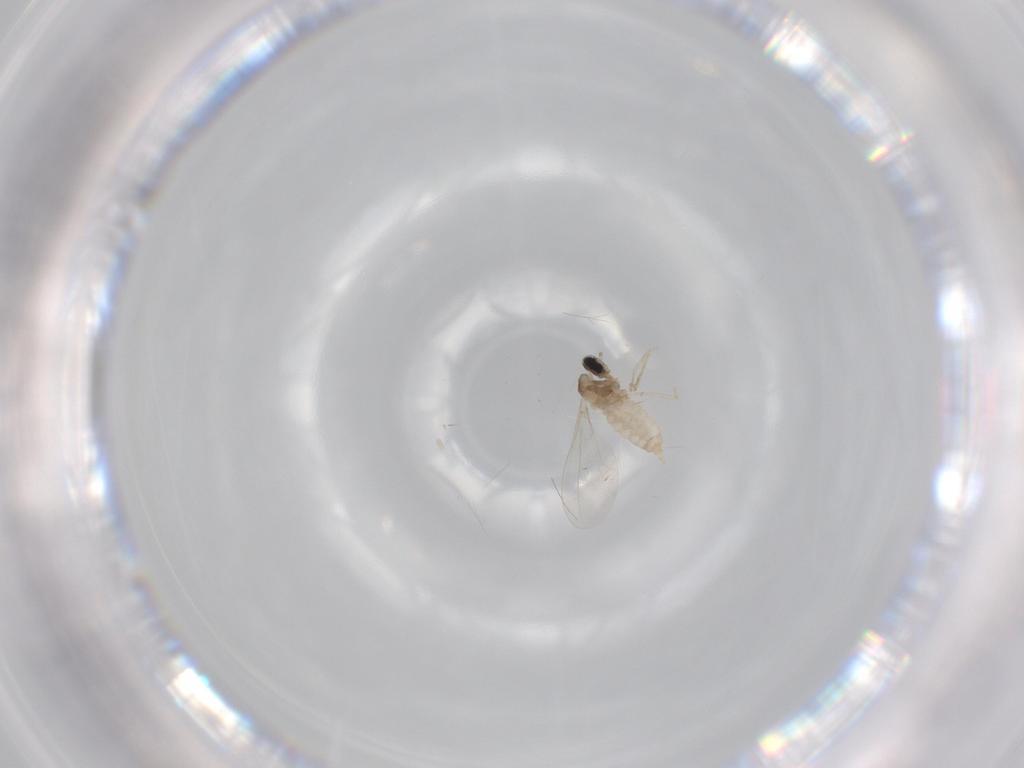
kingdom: Animalia
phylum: Arthropoda
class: Insecta
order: Diptera
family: Cecidomyiidae
